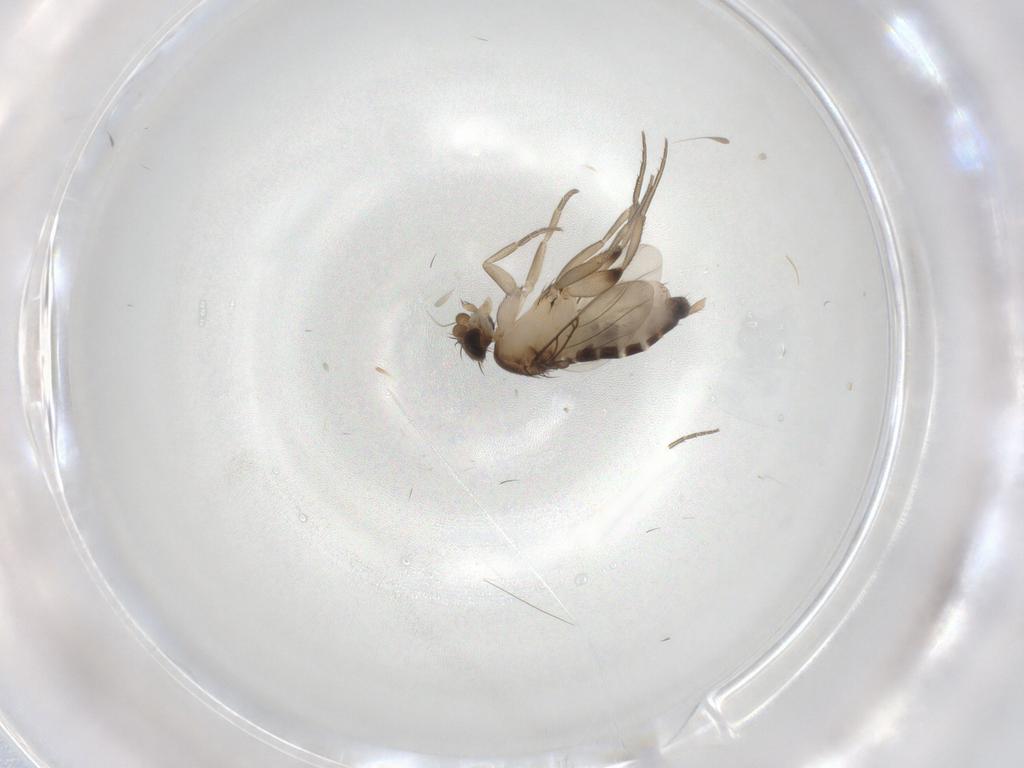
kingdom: Animalia
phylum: Arthropoda
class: Insecta
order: Diptera
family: Cecidomyiidae
